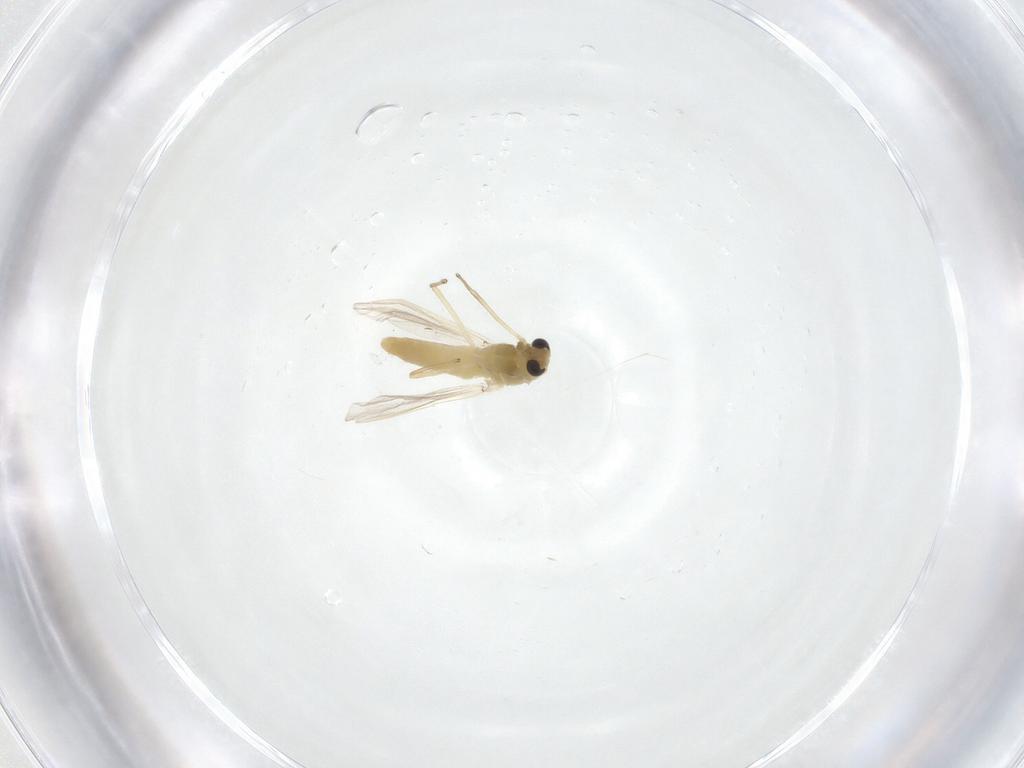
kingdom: Animalia
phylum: Arthropoda
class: Insecta
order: Diptera
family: Chironomidae
